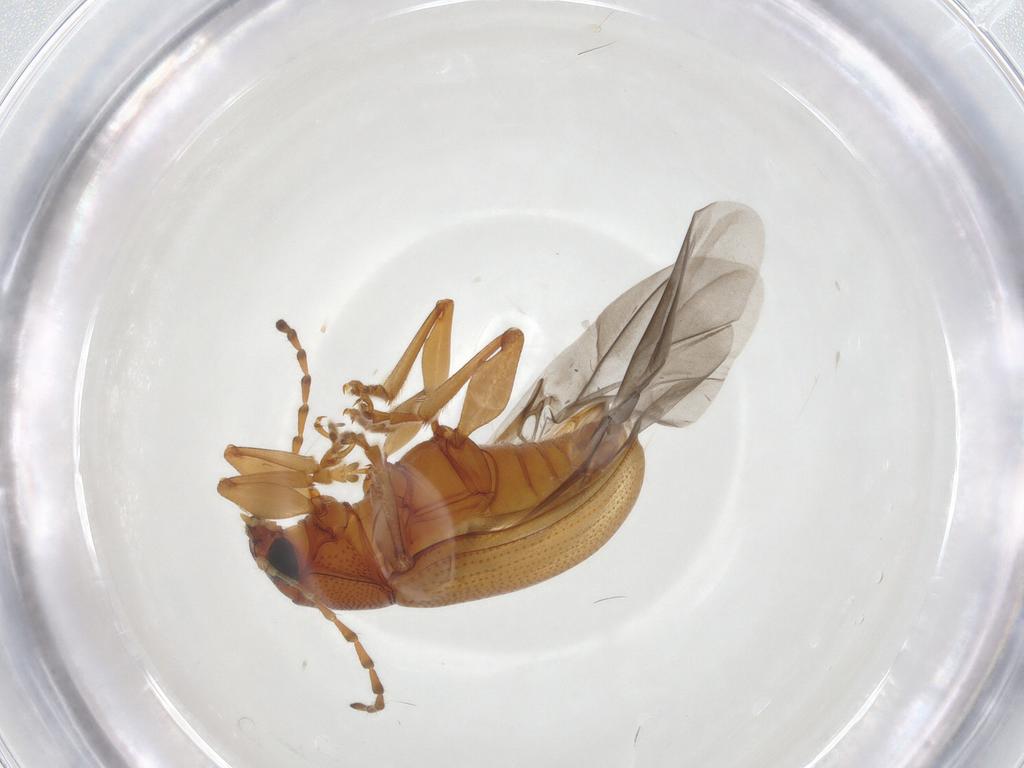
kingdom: Animalia
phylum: Arthropoda
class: Insecta
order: Coleoptera
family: Chrysomelidae
